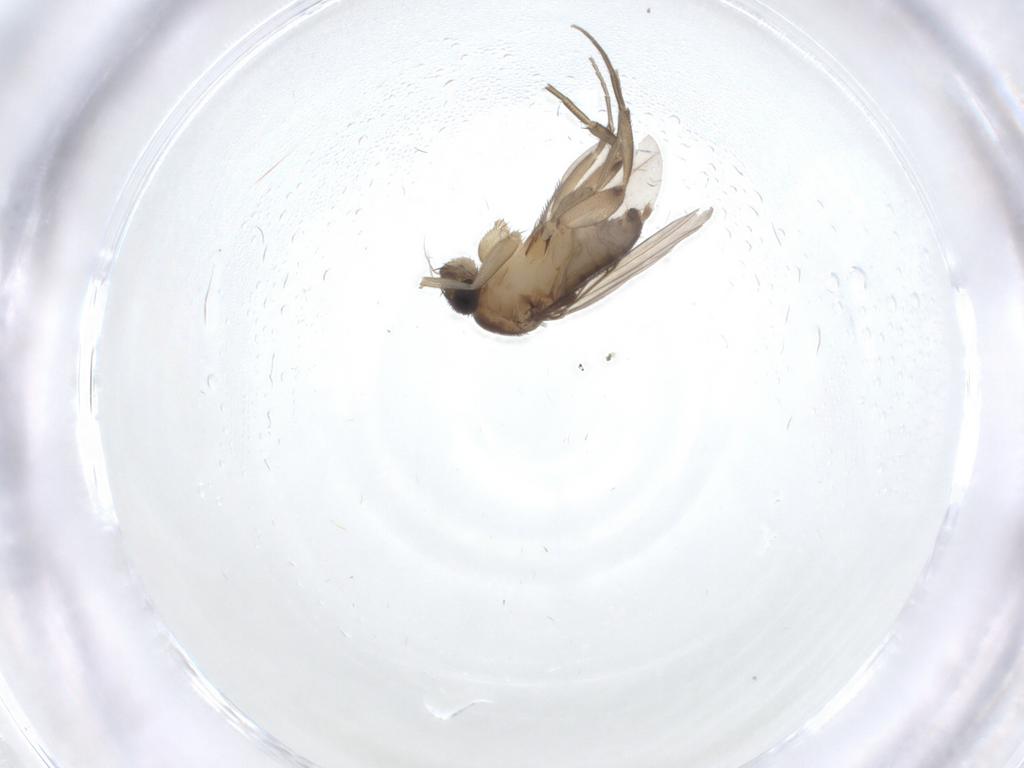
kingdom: Animalia
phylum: Arthropoda
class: Insecta
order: Diptera
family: Phoridae
